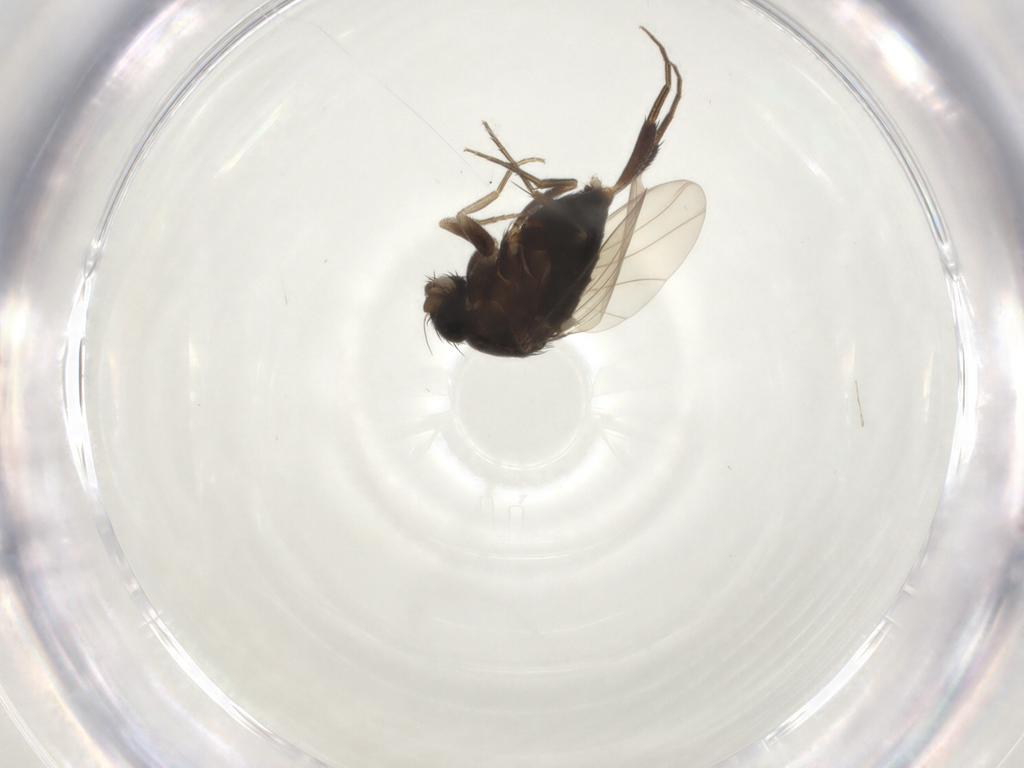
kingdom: Animalia
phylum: Arthropoda
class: Insecta
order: Diptera
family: Phoridae
